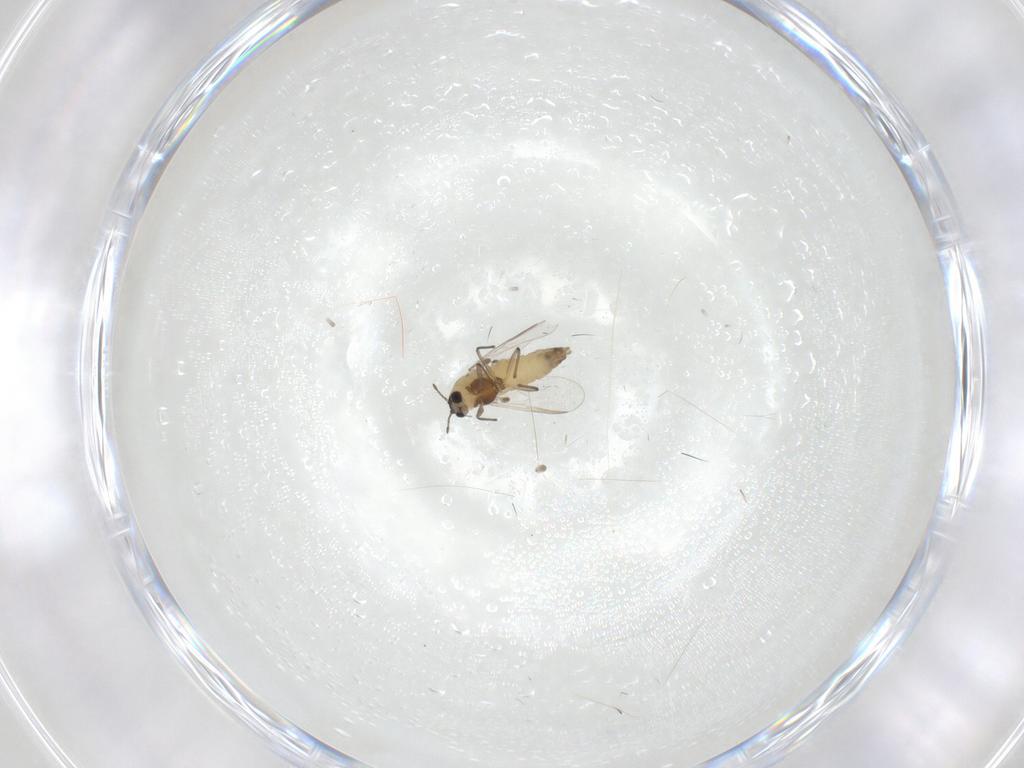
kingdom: Animalia
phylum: Arthropoda
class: Insecta
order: Diptera
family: Chironomidae
